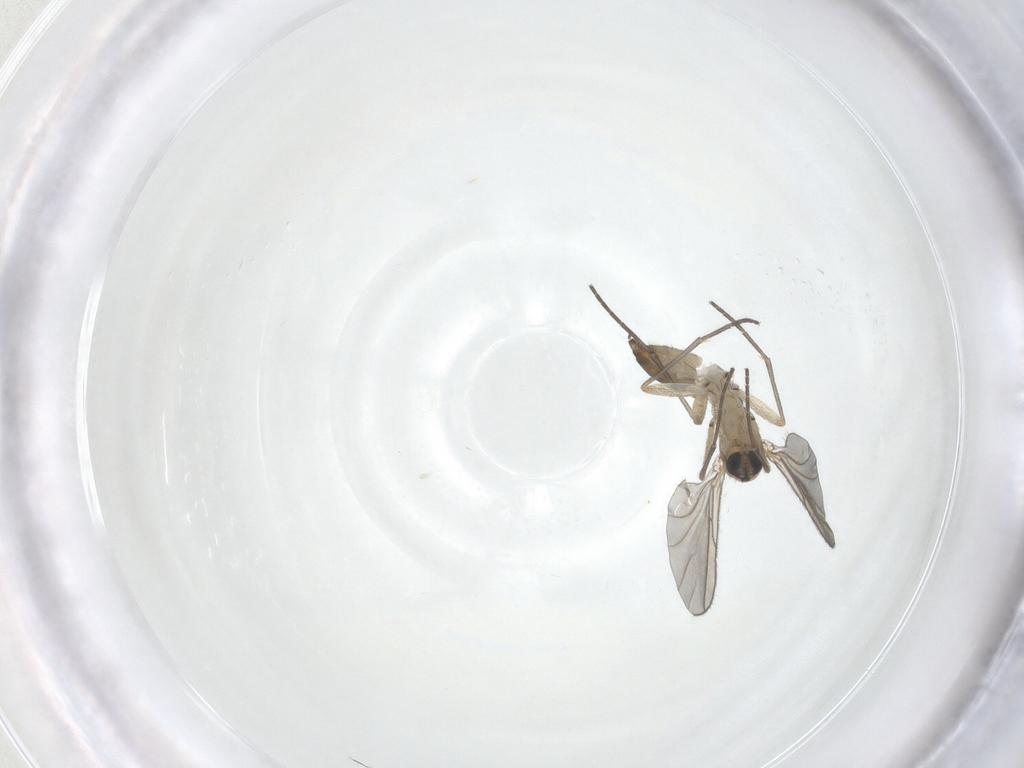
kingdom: Animalia
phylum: Arthropoda
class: Insecta
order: Diptera
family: Sciaridae
